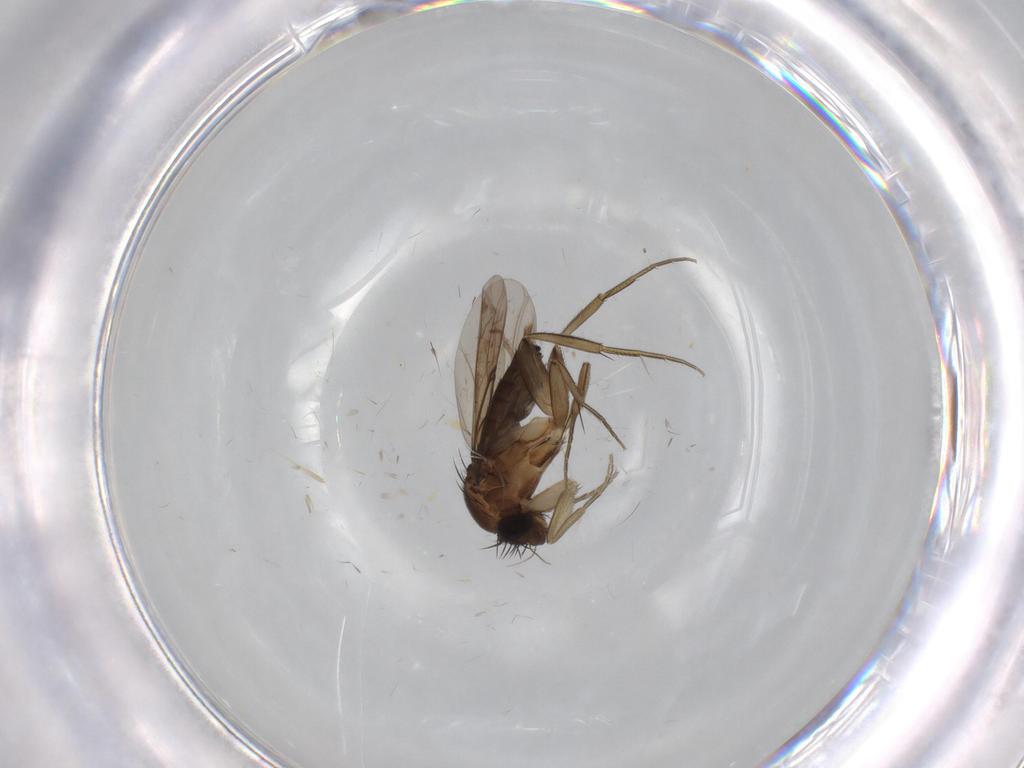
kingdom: Animalia
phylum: Arthropoda
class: Insecta
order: Diptera
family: Phoridae
